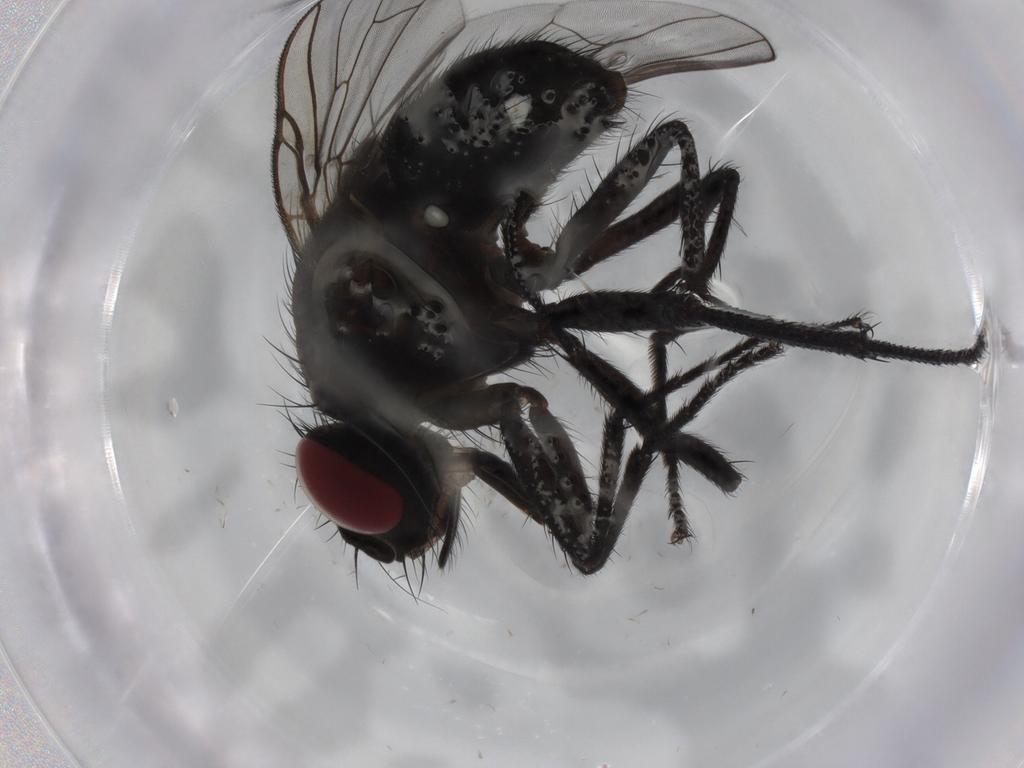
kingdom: Animalia
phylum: Arthropoda
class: Insecta
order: Diptera
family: Muscidae
